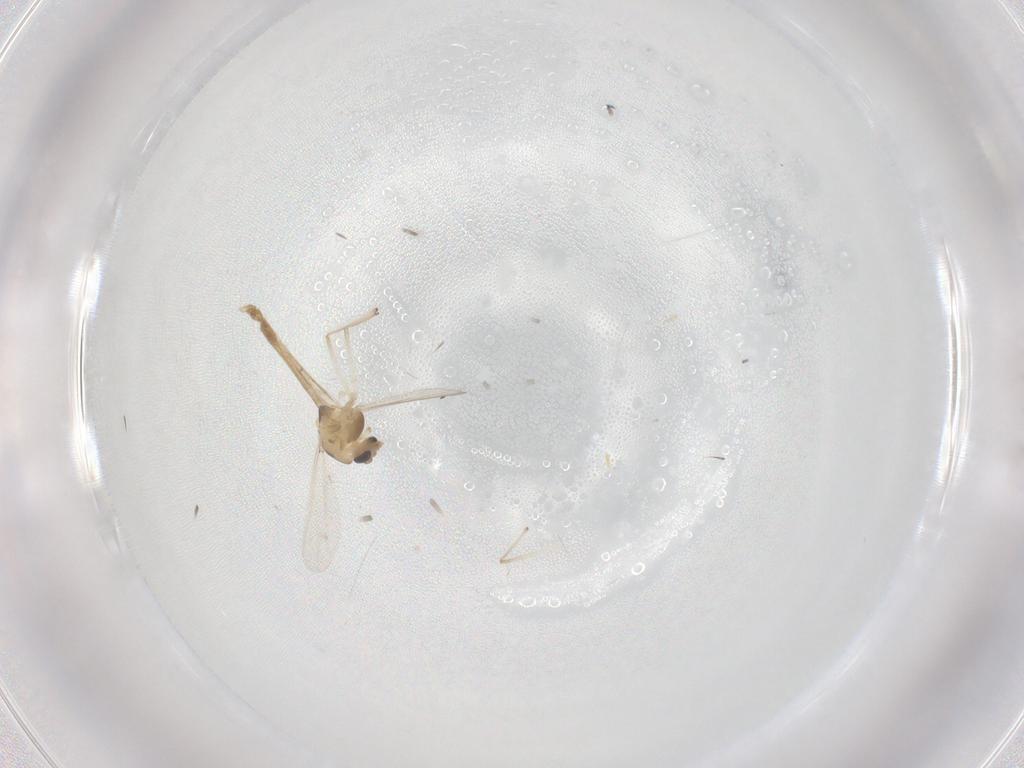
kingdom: Animalia
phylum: Arthropoda
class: Insecta
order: Diptera
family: Chironomidae
